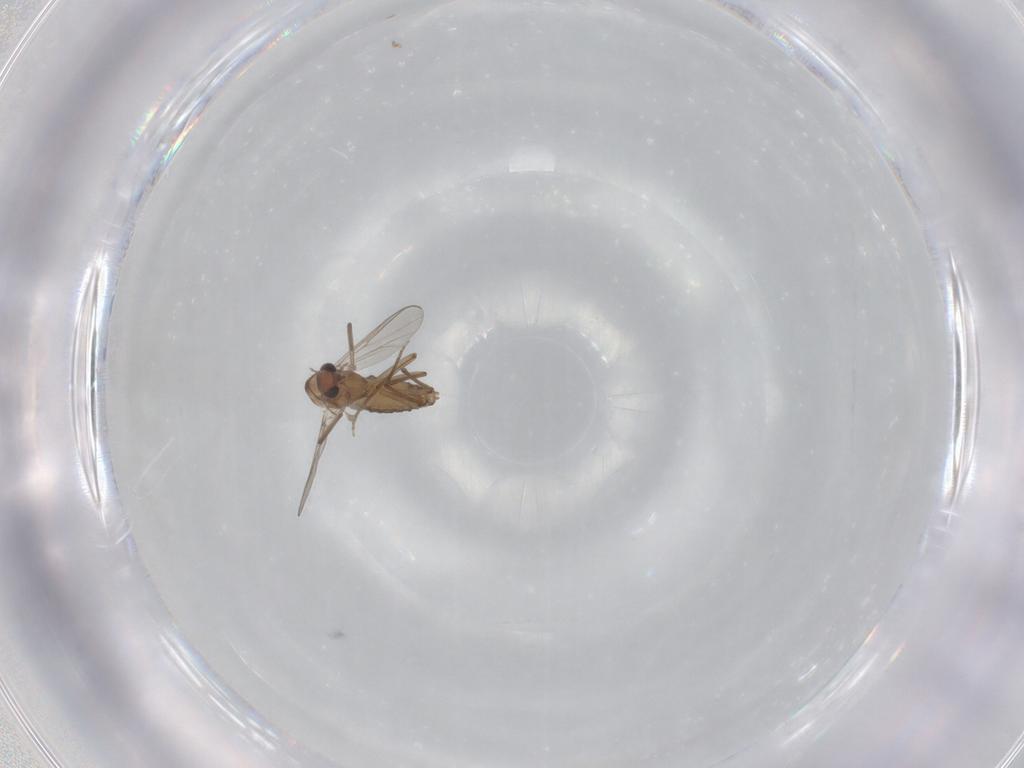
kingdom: Animalia
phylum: Arthropoda
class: Insecta
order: Diptera
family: Chironomidae
